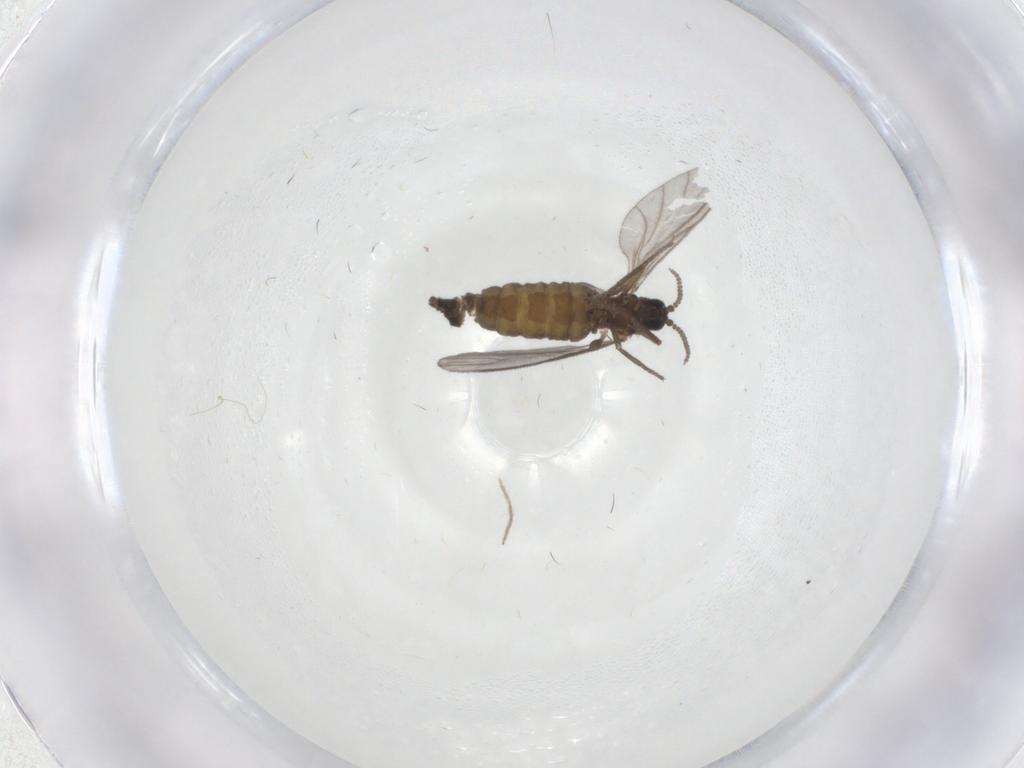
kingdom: Animalia
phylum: Arthropoda
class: Insecta
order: Diptera
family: Sciaridae
